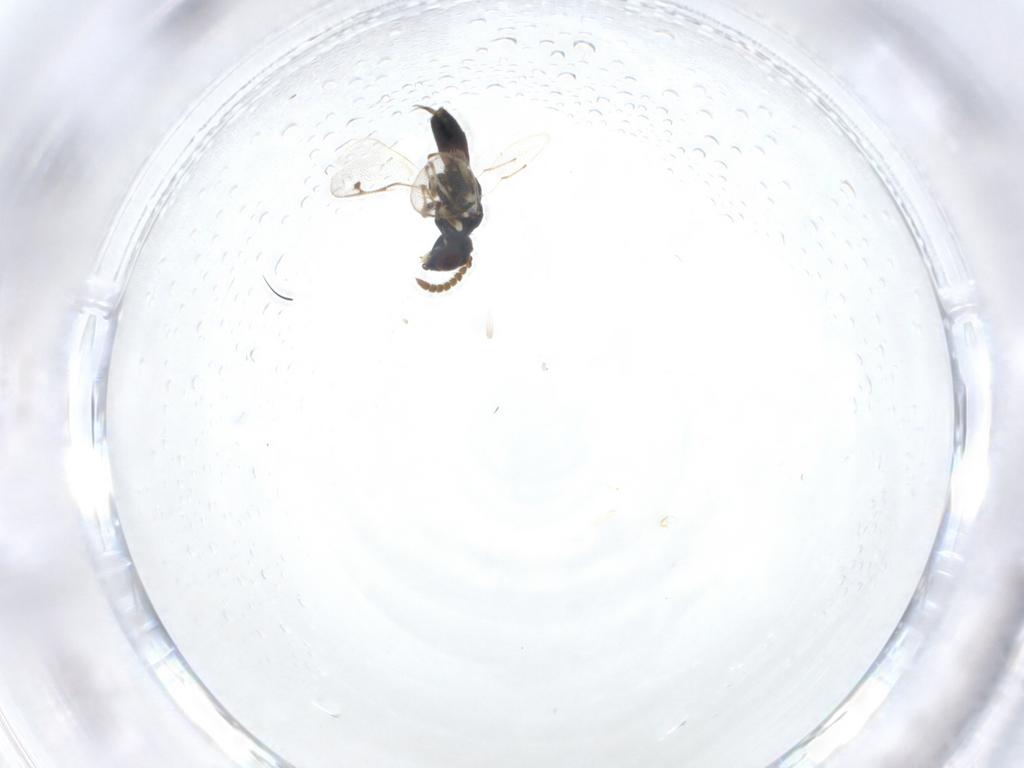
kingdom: Animalia
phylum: Arthropoda
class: Insecta
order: Hymenoptera
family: Pirenidae
